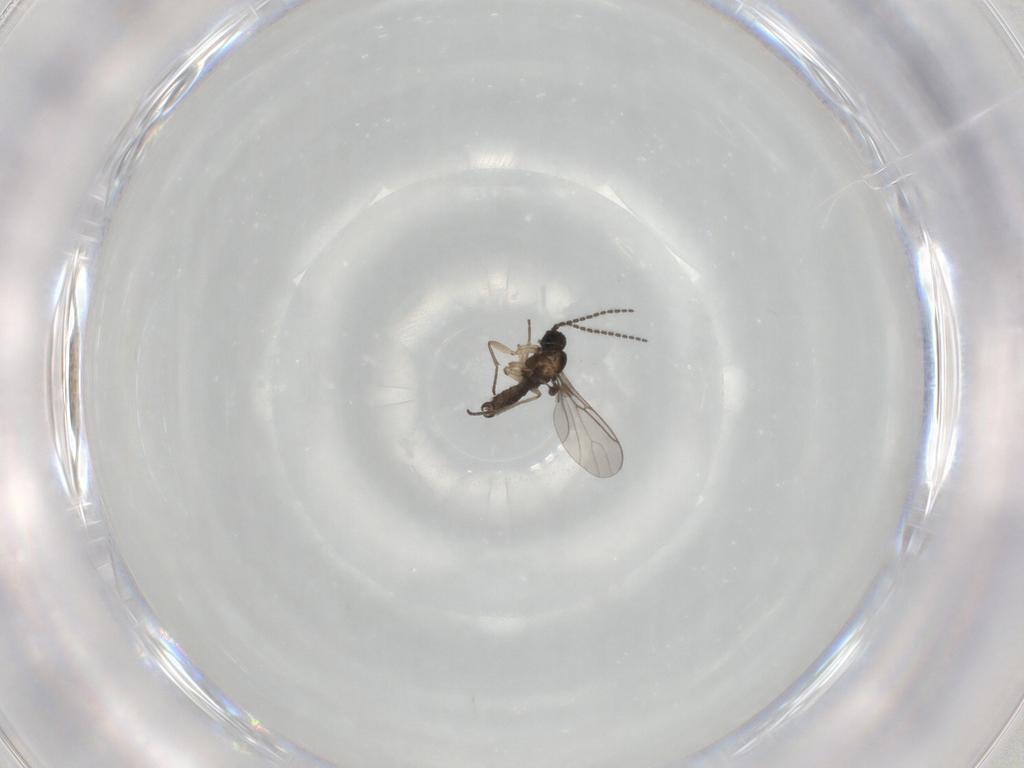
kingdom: Animalia
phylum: Arthropoda
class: Insecta
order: Diptera
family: Sciaridae
